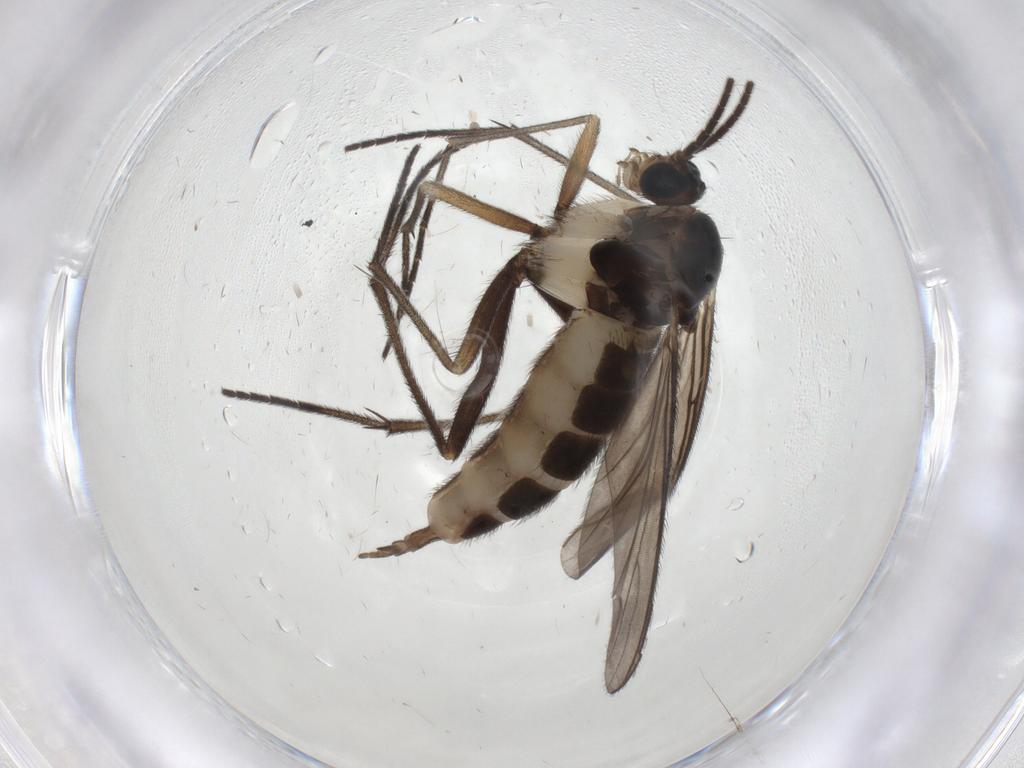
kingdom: Animalia
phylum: Arthropoda
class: Insecta
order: Diptera
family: Sciaridae
